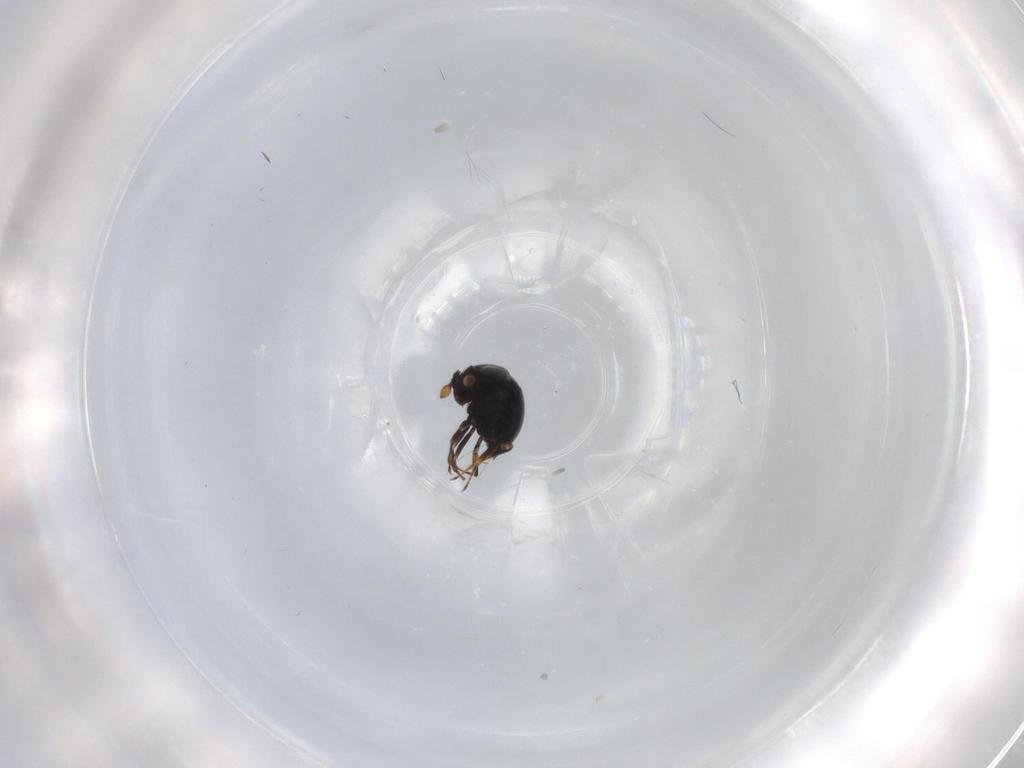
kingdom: Animalia
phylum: Arthropoda
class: Insecta
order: Hymenoptera
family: Scelionidae
